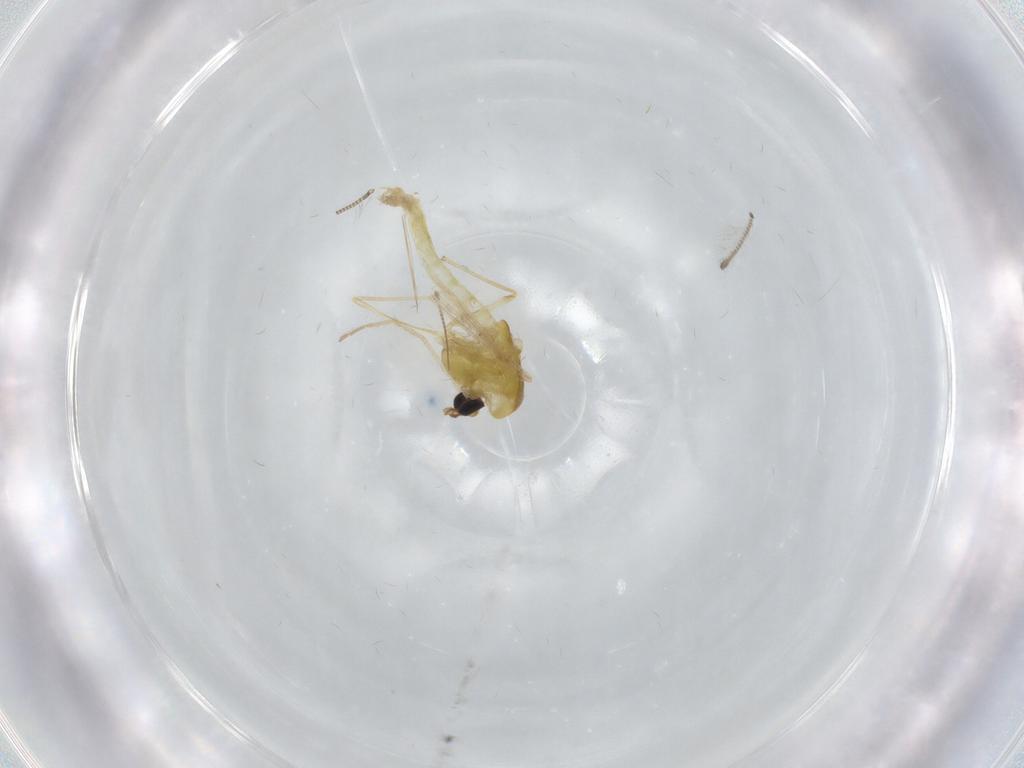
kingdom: Animalia
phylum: Arthropoda
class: Insecta
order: Diptera
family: Chironomidae
